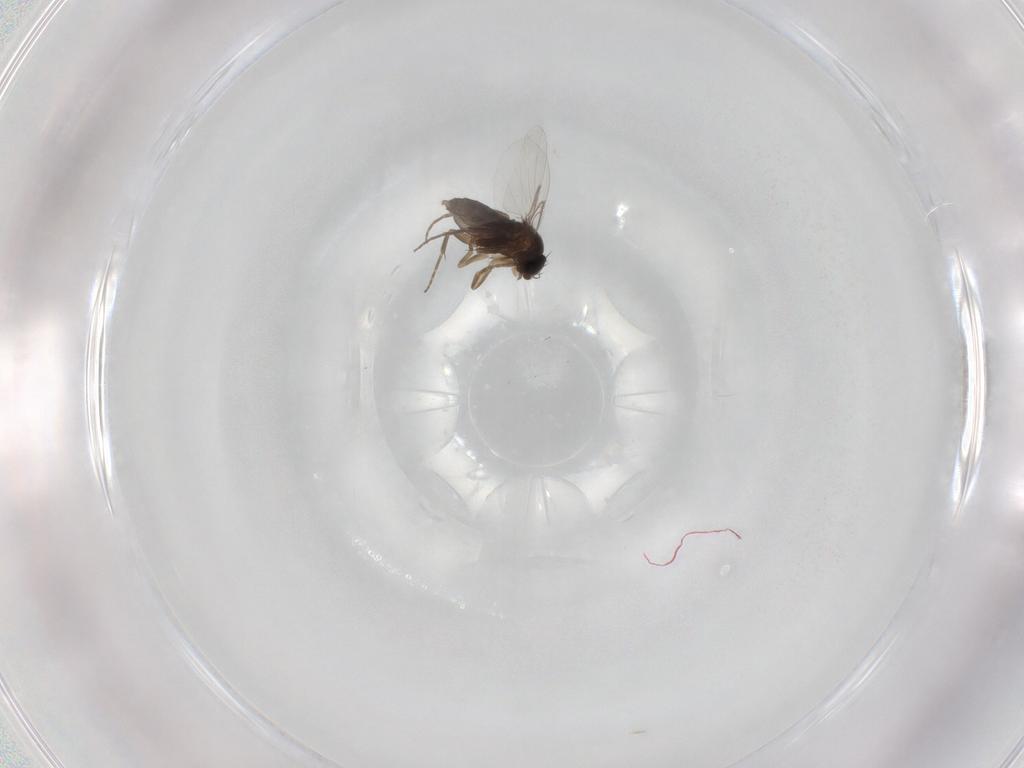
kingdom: Animalia
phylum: Arthropoda
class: Insecta
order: Diptera
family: Phoridae
